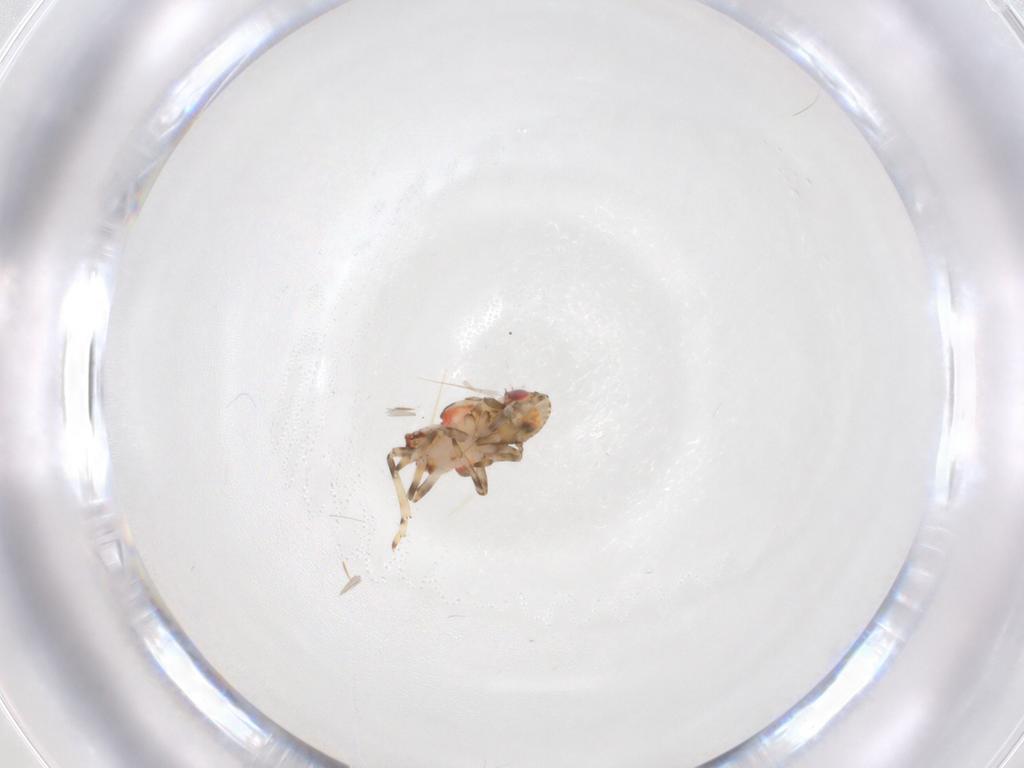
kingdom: Animalia
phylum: Arthropoda
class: Insecta
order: Hemiptera
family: Tropiduchidae
